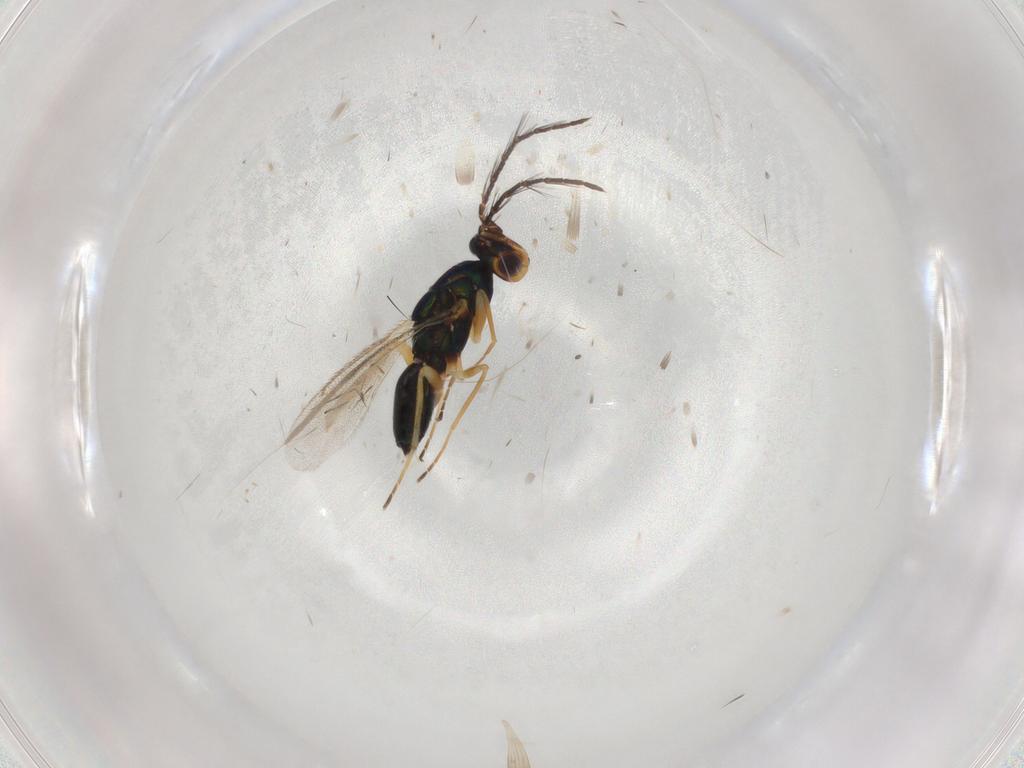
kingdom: Animalia
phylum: Arthropoda
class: Insecta
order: Hymenoptera
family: Eulophidae
